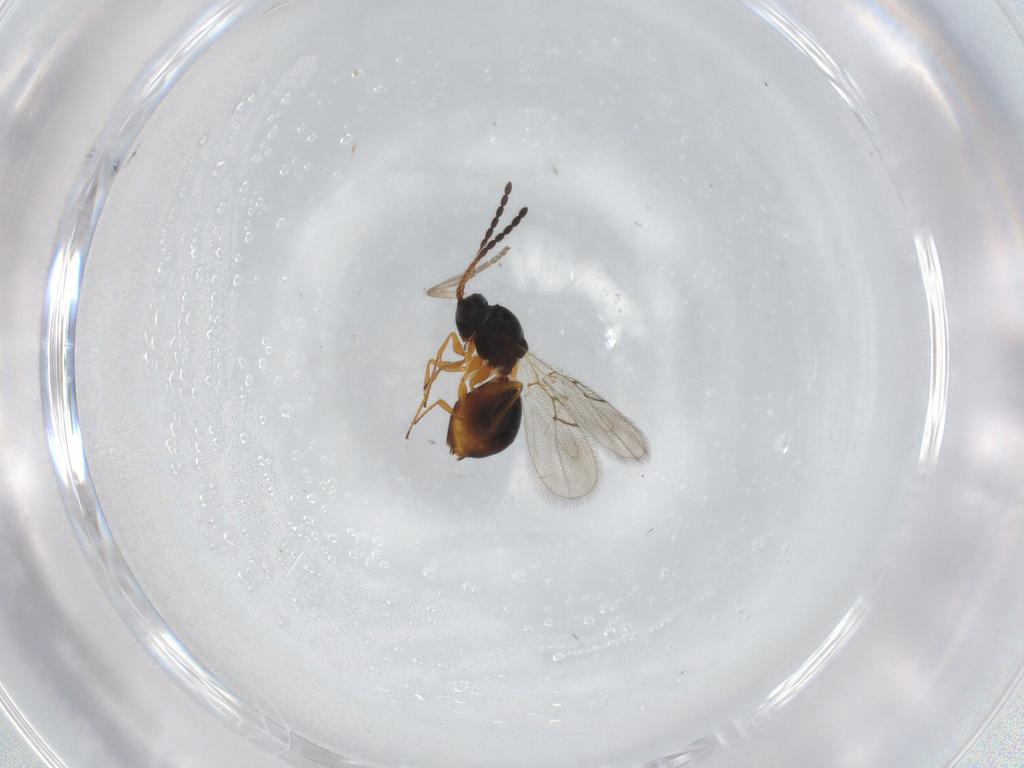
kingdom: Animalia
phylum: Arthropoda
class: Insecta
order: Hymenoptera
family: Figitidae
